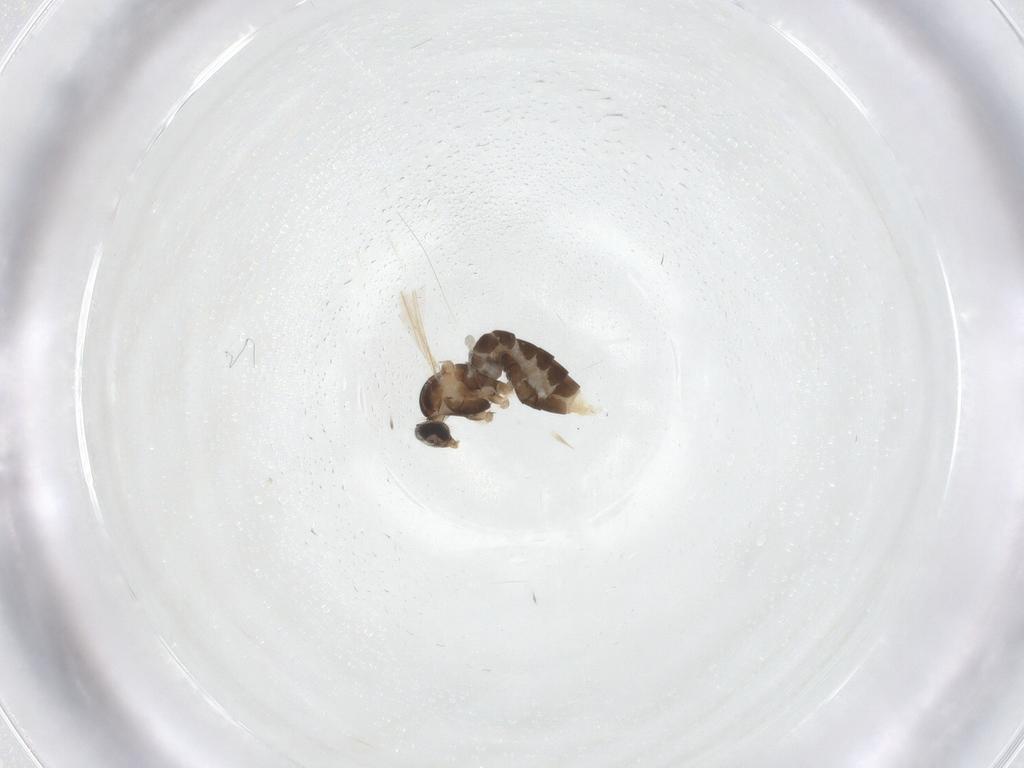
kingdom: Animalia
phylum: Arthropoda
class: Insecta
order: Diptera
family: Cecidomyiidae
